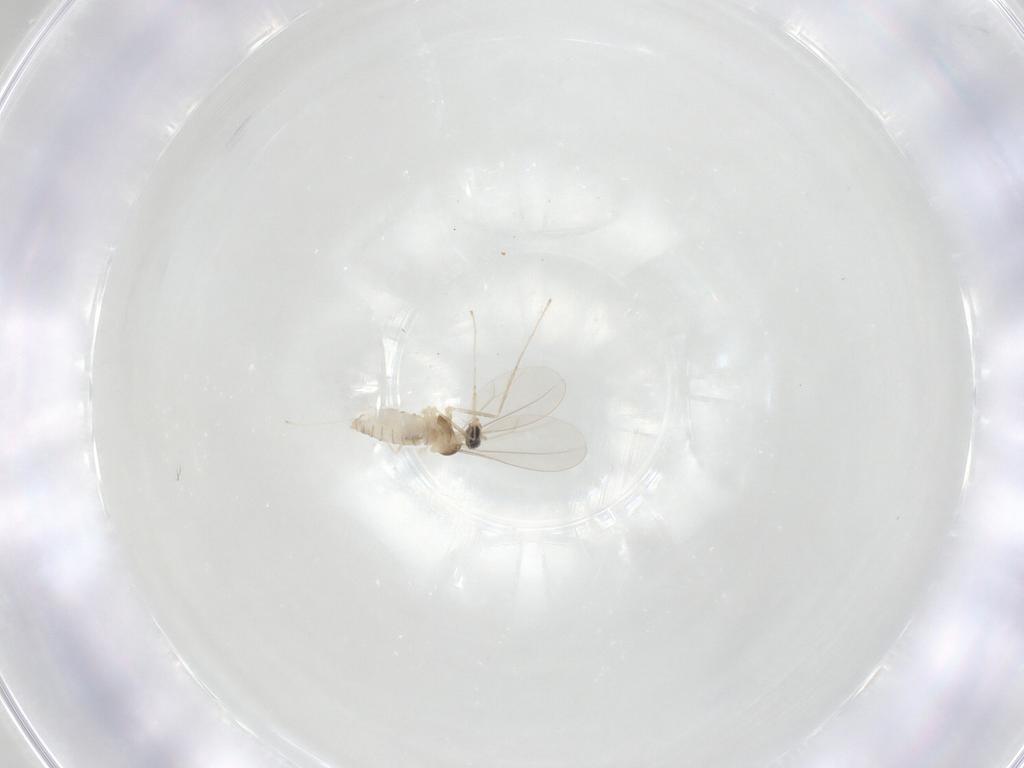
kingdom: Animalia
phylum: Arthropoda
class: Insecta
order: Diptera
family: Cecidomyiidae
